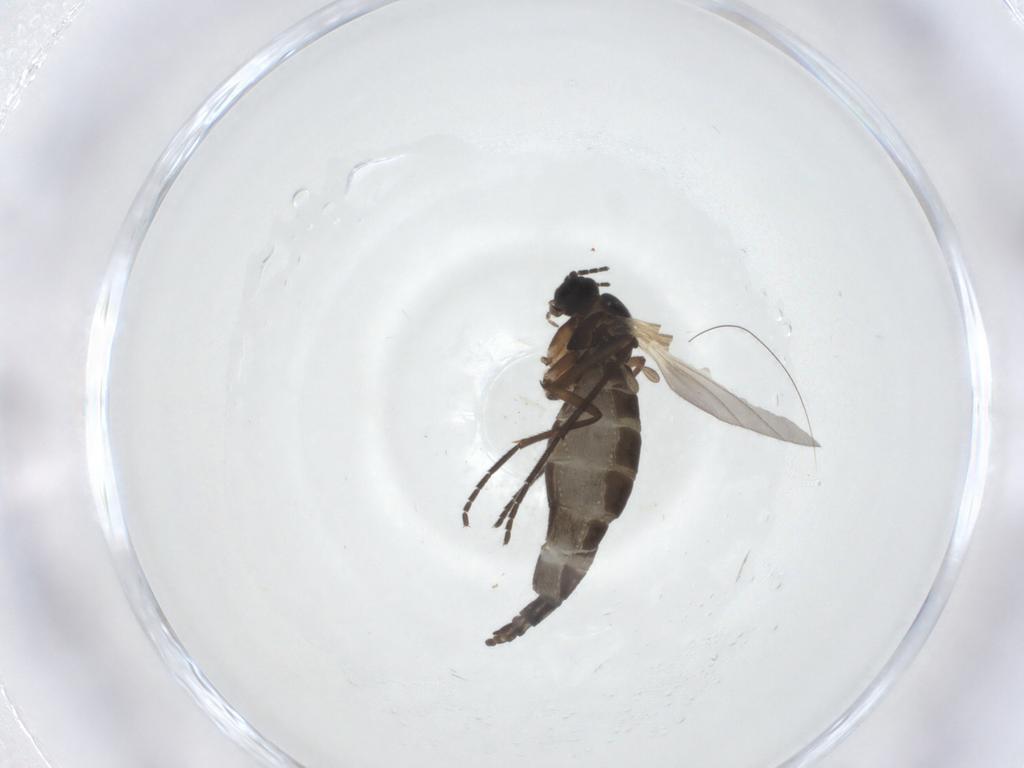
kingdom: Animalia
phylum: Arthropoda
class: Insecta
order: Diptera
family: Sciaridae
